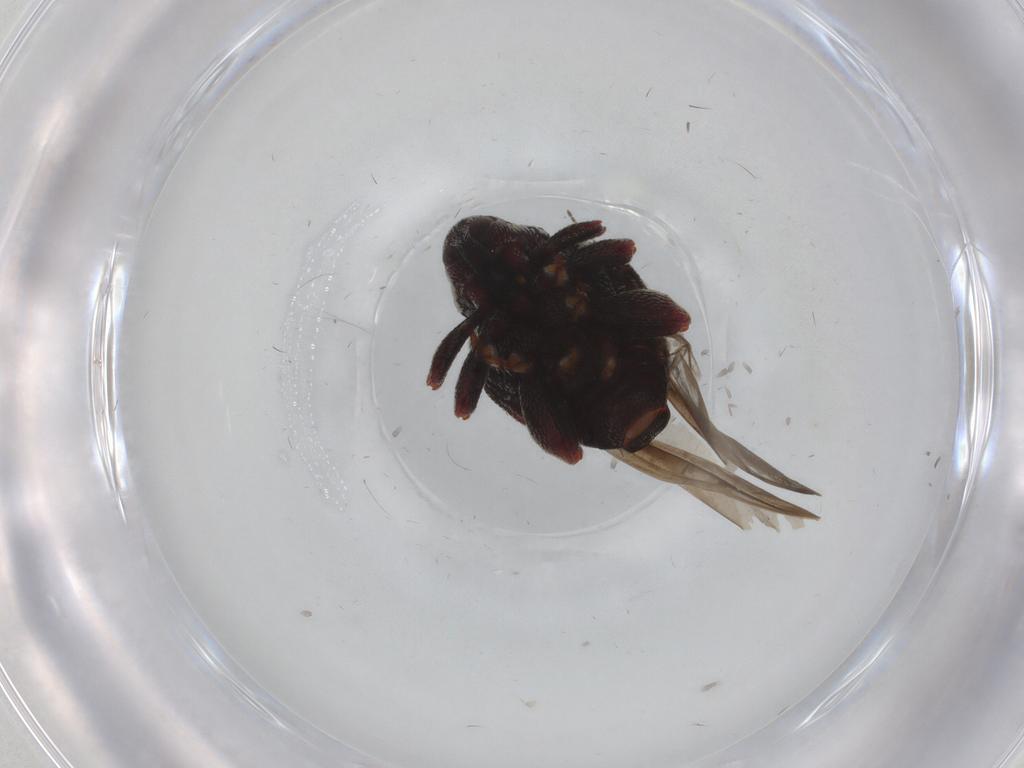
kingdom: Animalia
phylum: Arthropoda
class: Insecta
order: Coleoptera
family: Curculionidae
